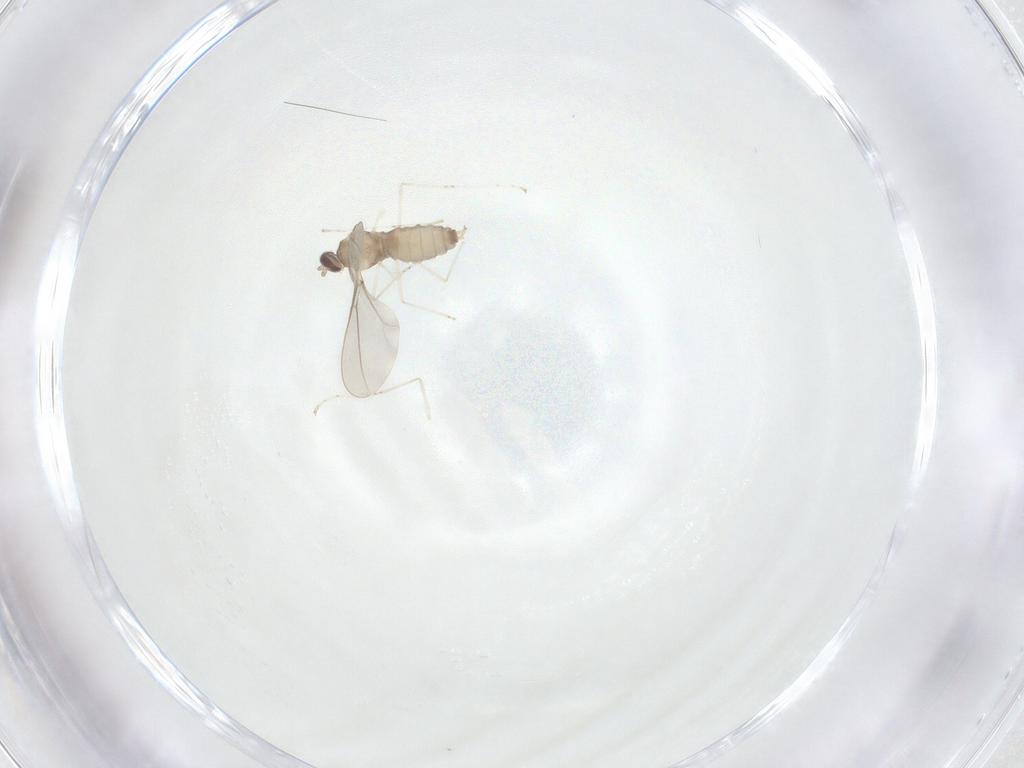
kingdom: Animalia
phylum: Arthropoda
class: Insecta
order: Diptera
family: Cecidomyiidae
